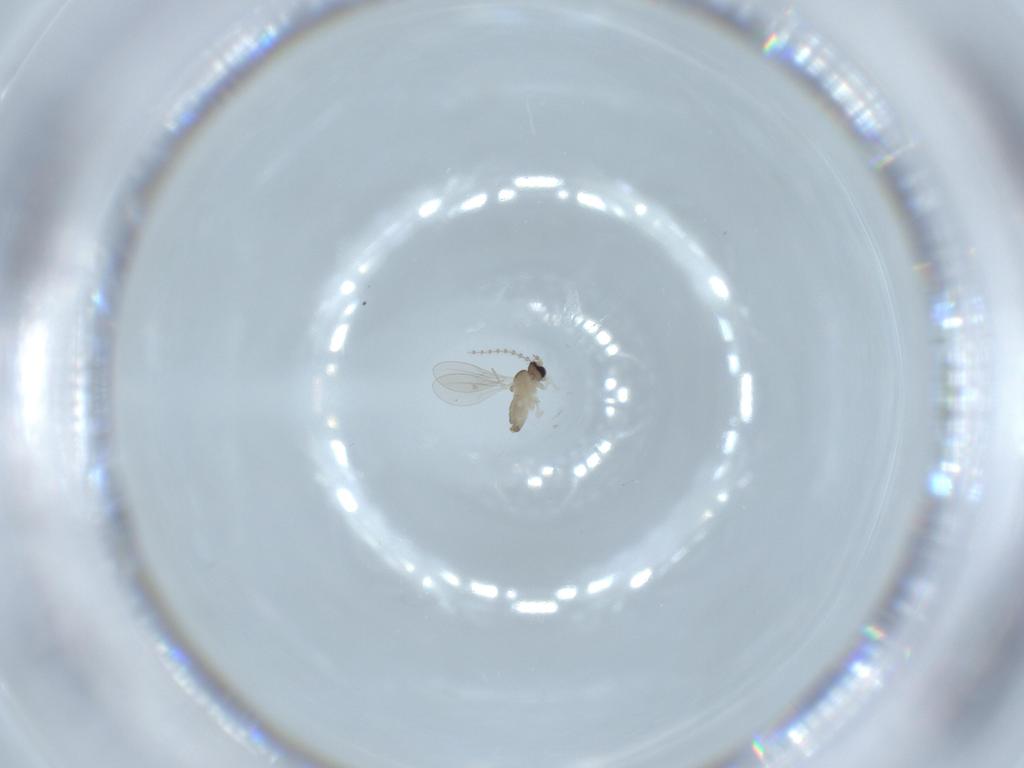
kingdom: Animalia
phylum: Arthropoda
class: Insecta
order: Diptera
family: Cecidomyiidae
